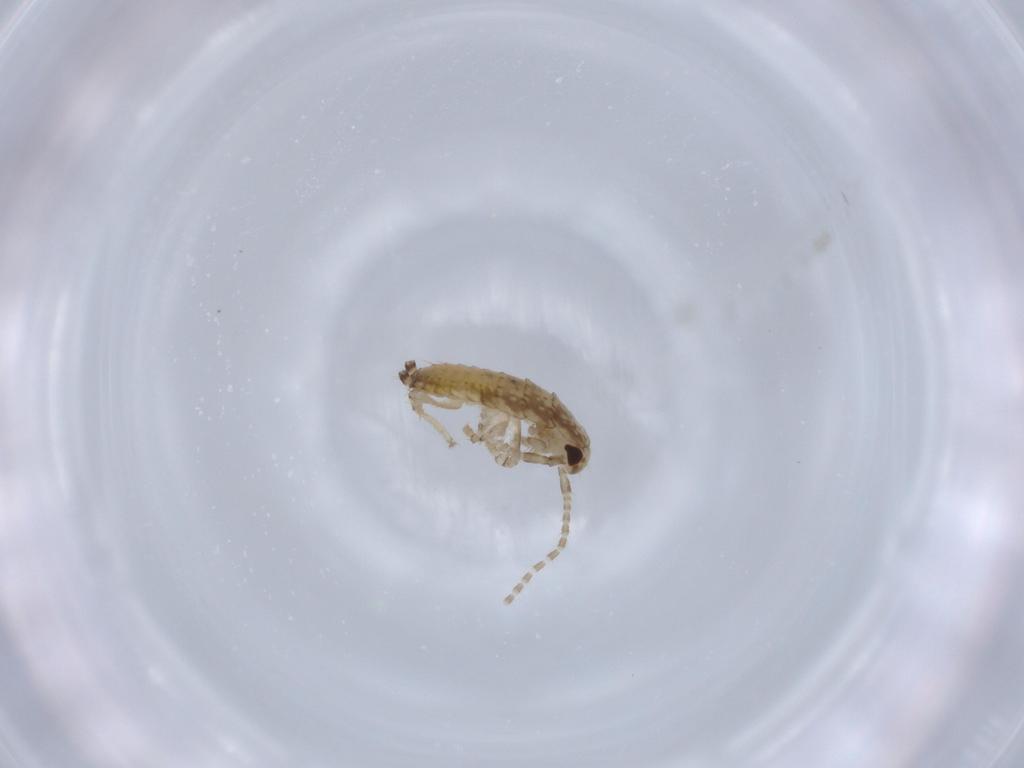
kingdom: Animalia
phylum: Arthropoda
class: Insecta
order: Blattodea
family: Ectobiidae
